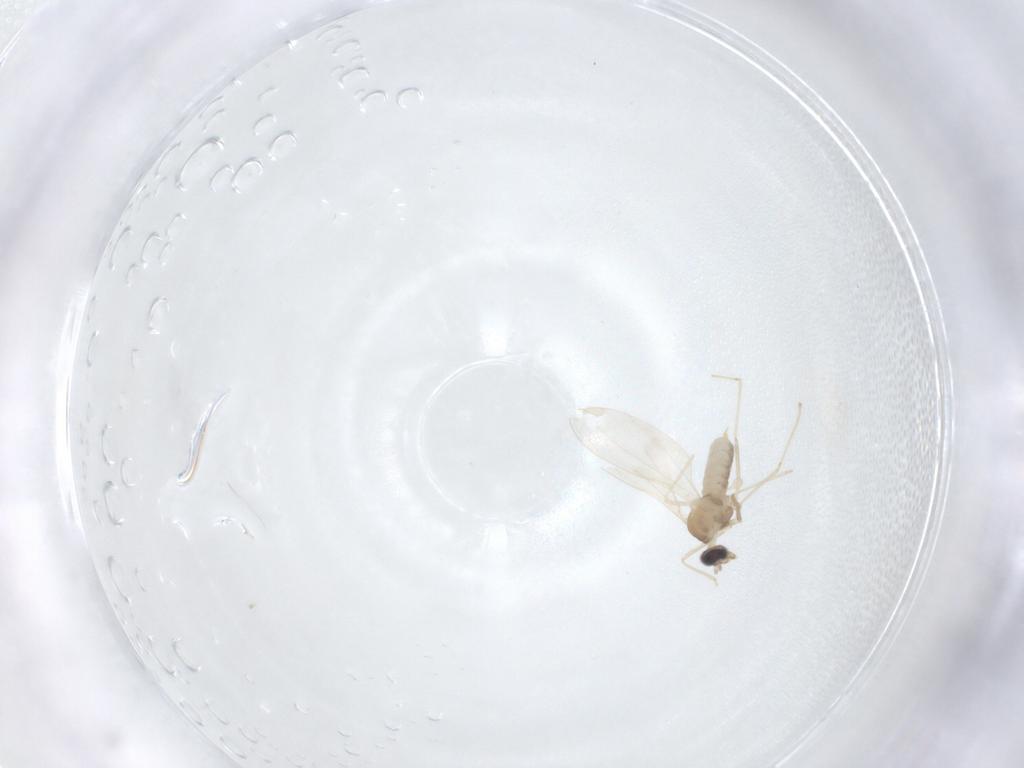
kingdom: Animalia
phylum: Arthropoda
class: Insecta
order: Diptera
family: Cecidomyiidae
